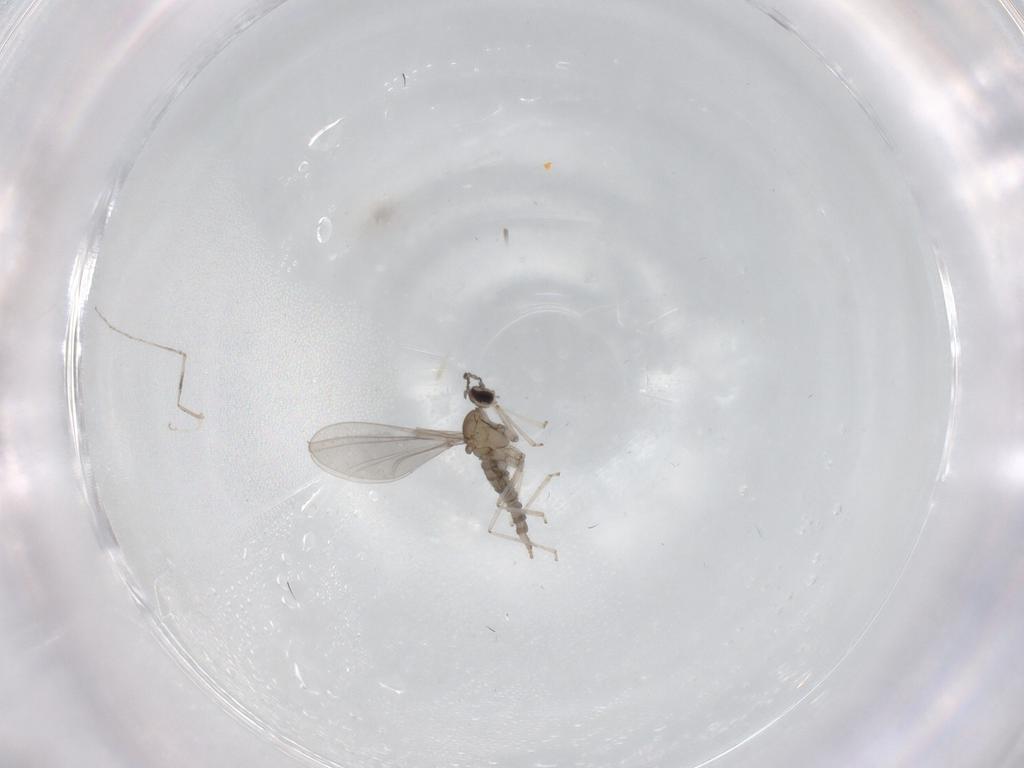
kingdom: Animalia
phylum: Arthropoda
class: Insecta
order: Diptera
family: Cecidomyiidae
